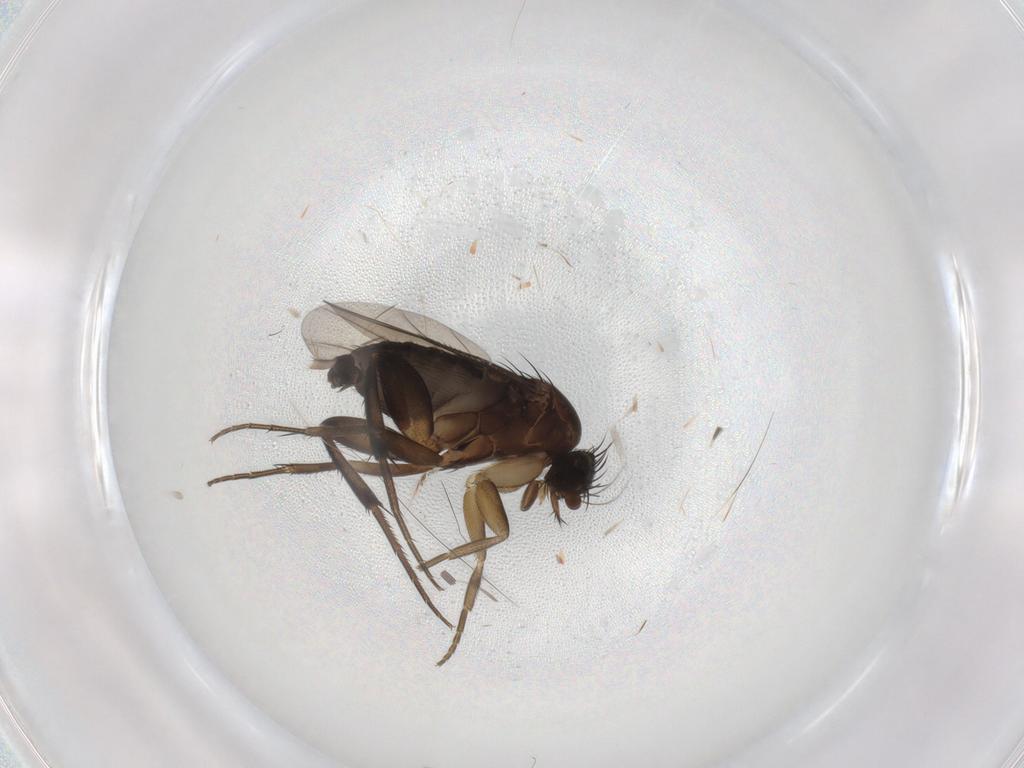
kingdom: Animalia
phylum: Arthropoda
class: Insecta
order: Diptera
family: Phoridae
